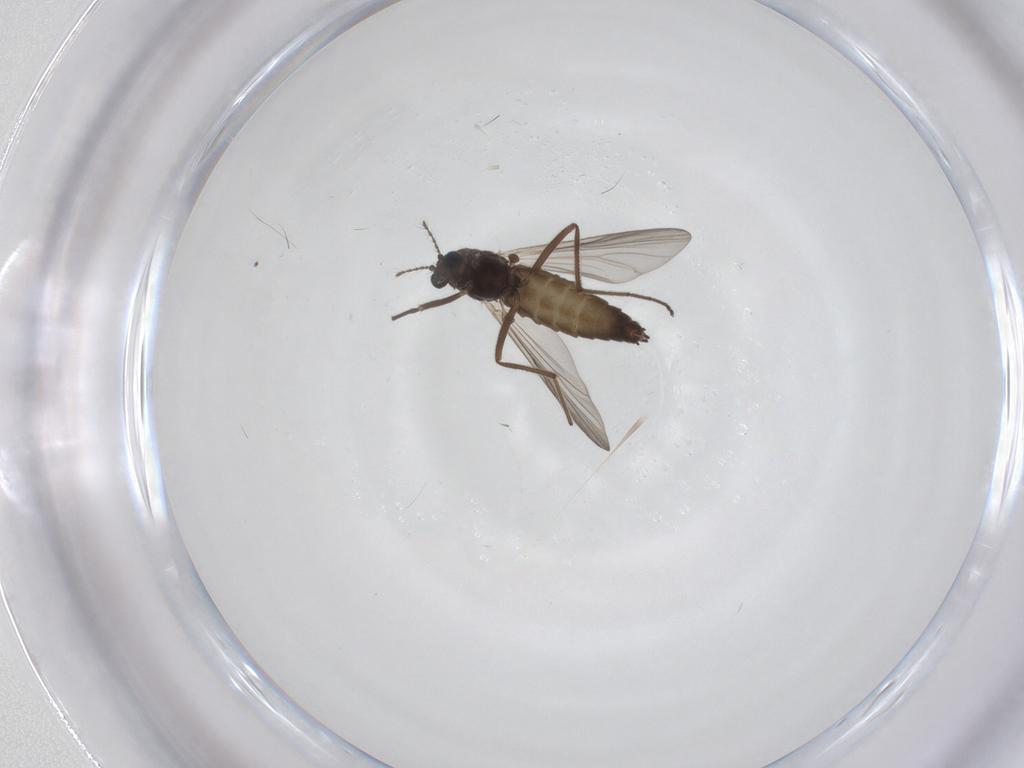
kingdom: Animalia
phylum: Arthropoda
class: Insecta
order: Diptera
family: Chironomidae
